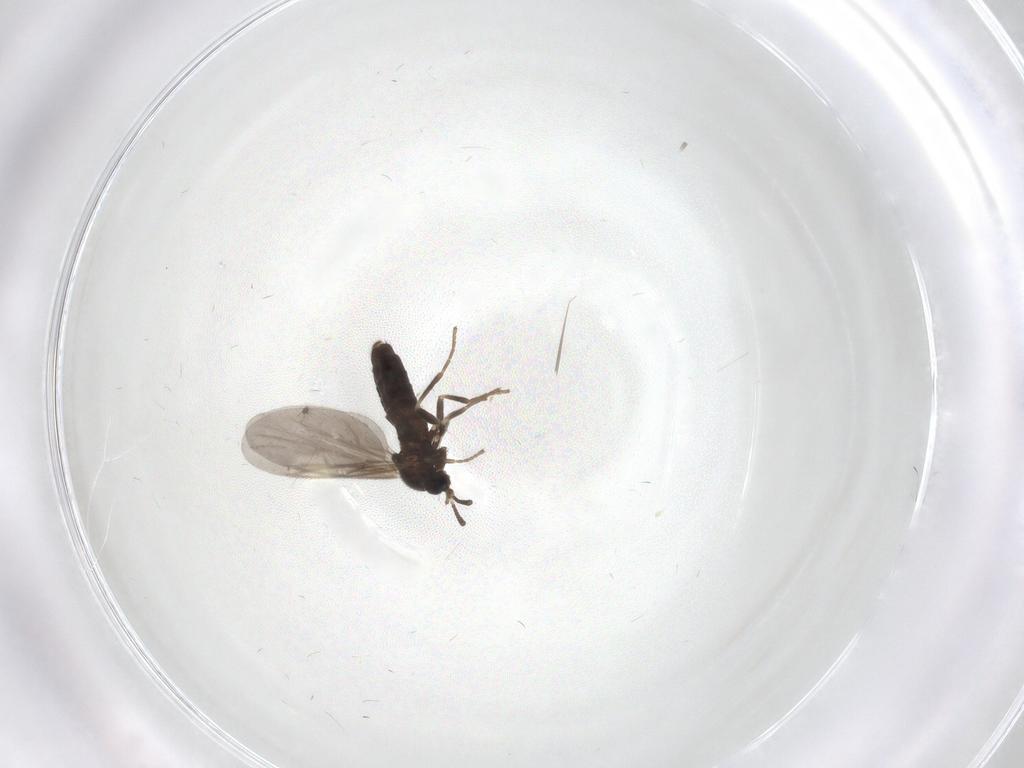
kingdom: Animalia
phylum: Arthropoda
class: Insecta
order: Diptera
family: Scatopsidae
